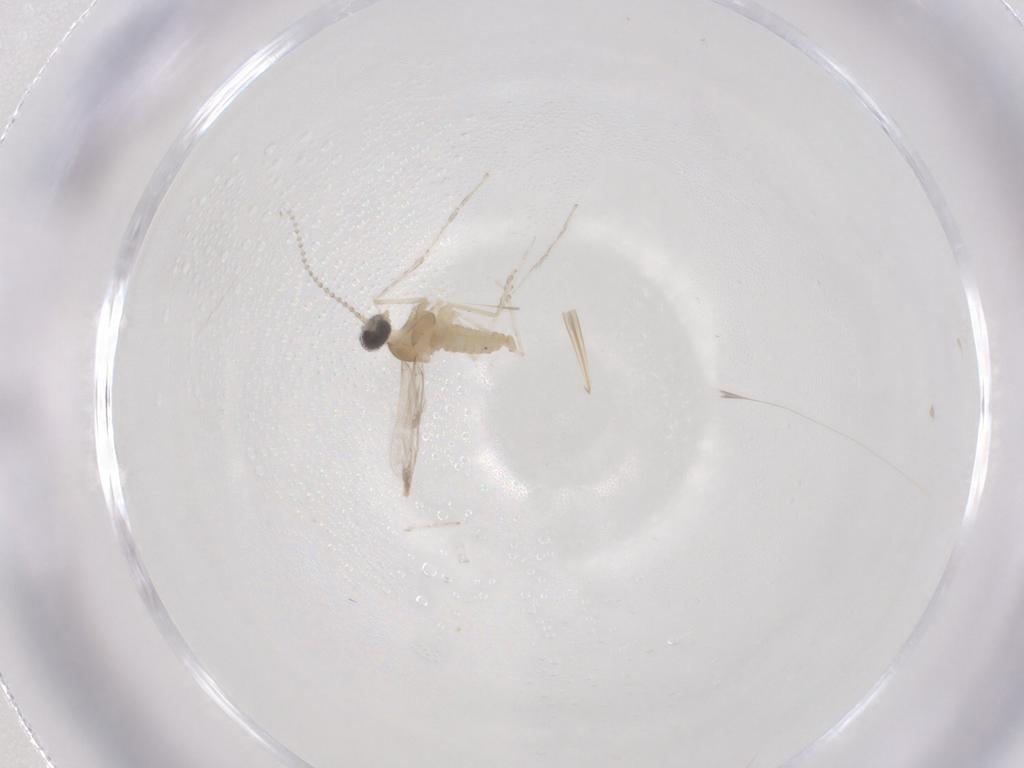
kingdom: Animalia
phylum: Arthropoda
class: Insecta
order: Diptera
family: Cecidomyiidae
